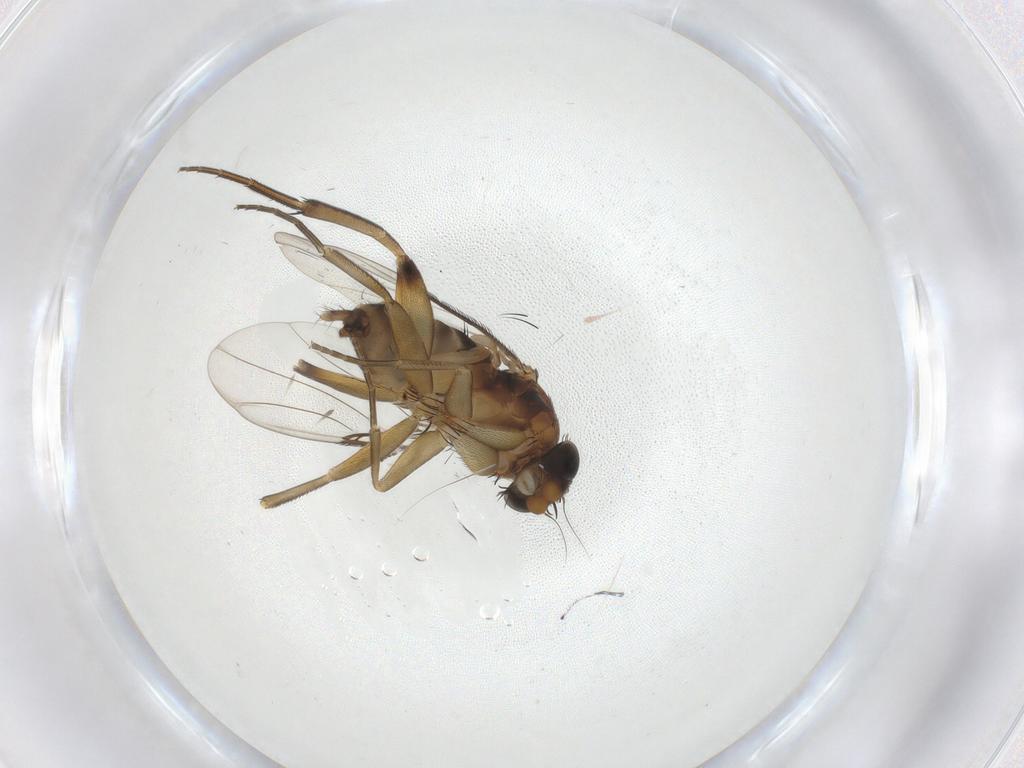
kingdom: Animalia
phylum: Arthropoda
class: Insecta
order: Diptera
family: Phoridae
